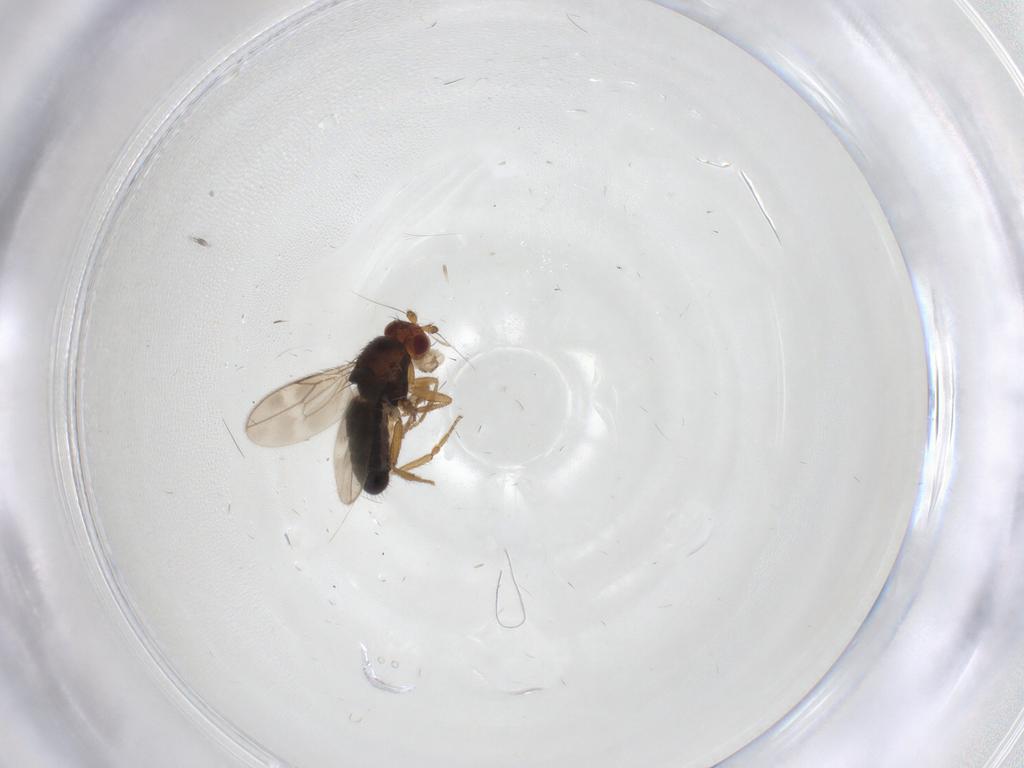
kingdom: Animalia
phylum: Arthropoda
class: Insecta
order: Diptera
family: Sphaeroceridae
